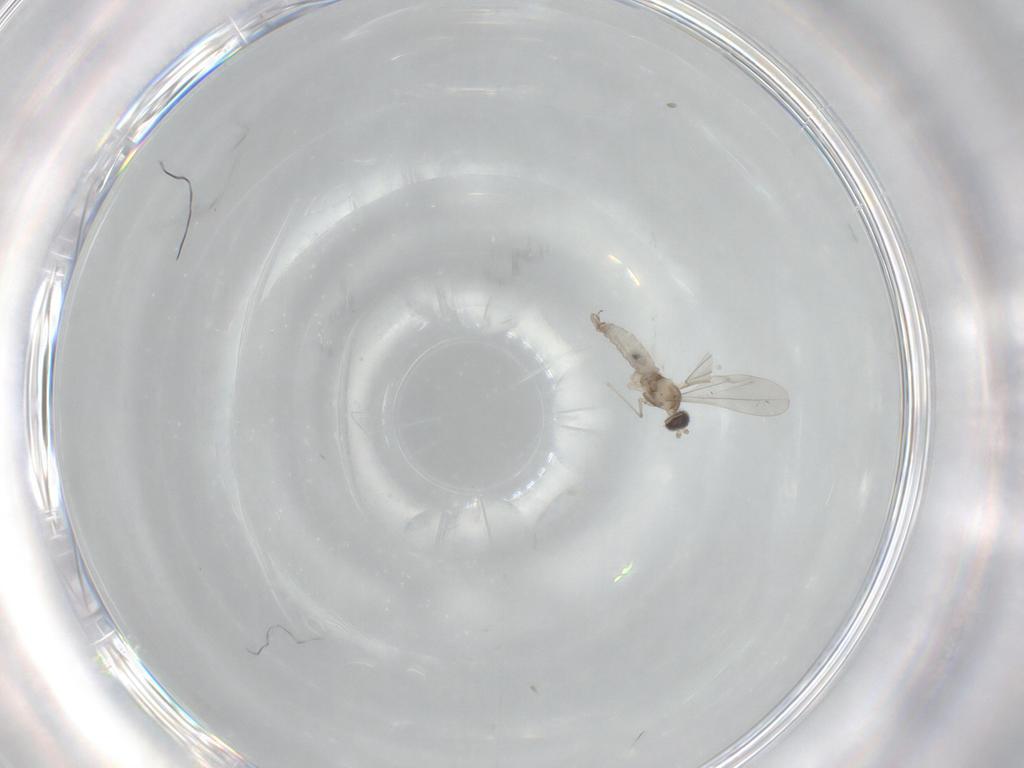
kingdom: Animalia
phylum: Arthropoda
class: Insecta
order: Diptera
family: Cecidomyiidae
